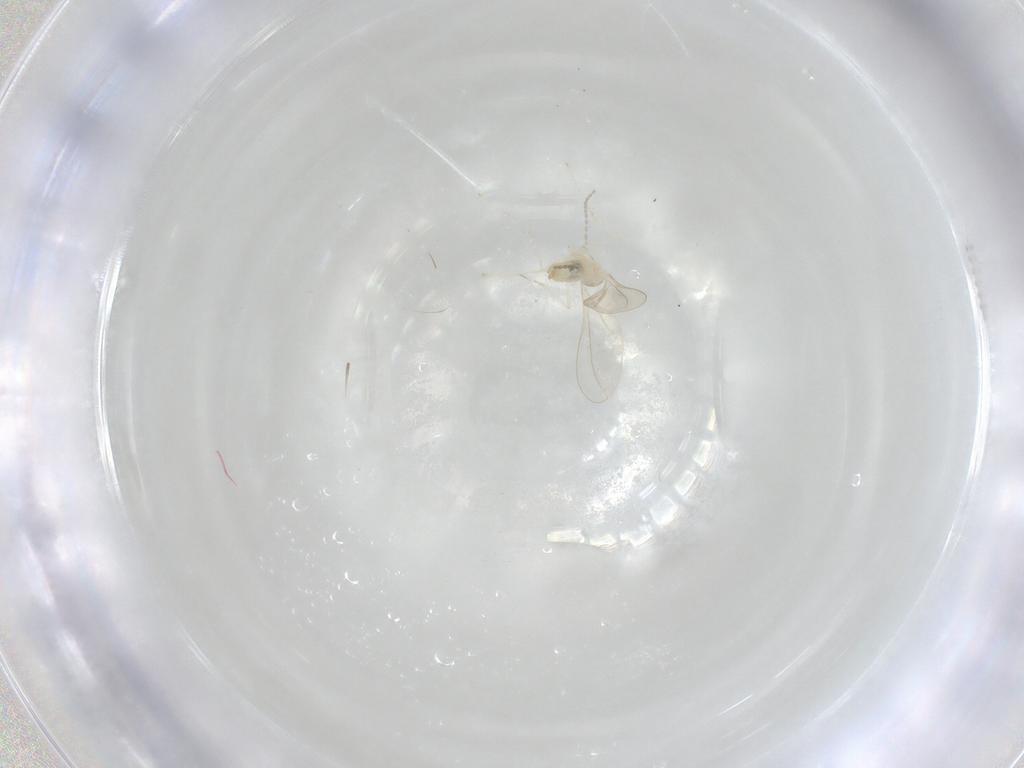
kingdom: Animalia
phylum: Arthropoda
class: Insecta
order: Diptera
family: Cecidomyiidae
